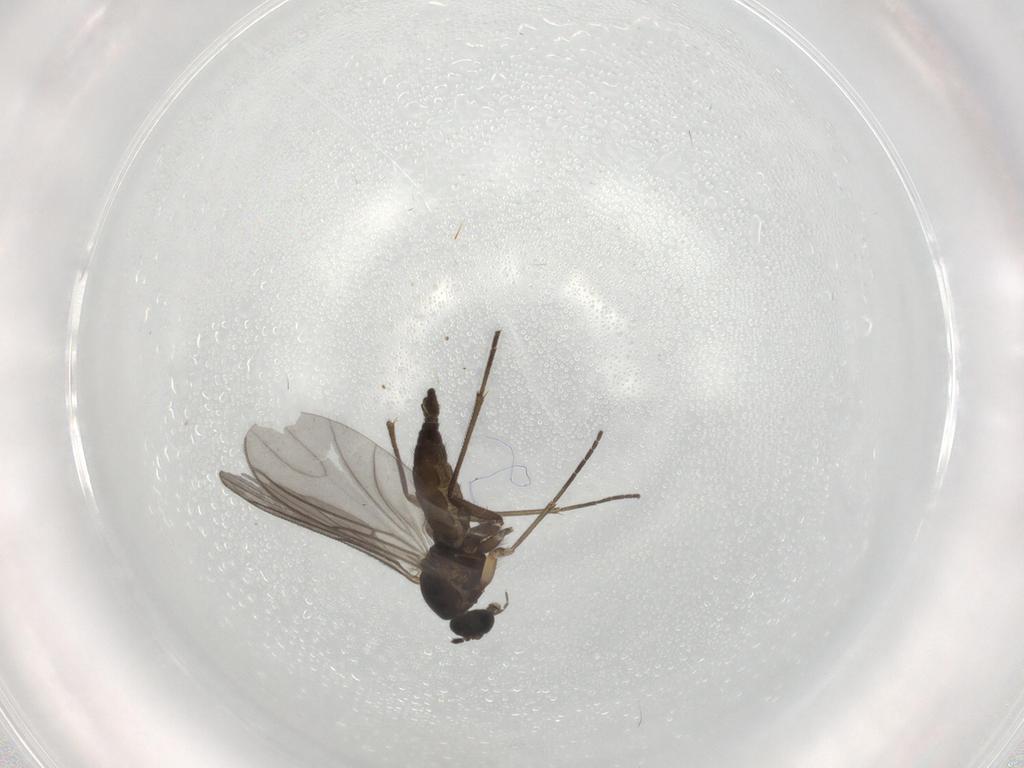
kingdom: Animalia
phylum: Arthropoda
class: Insecta
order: Diptera
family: Sciaridae
